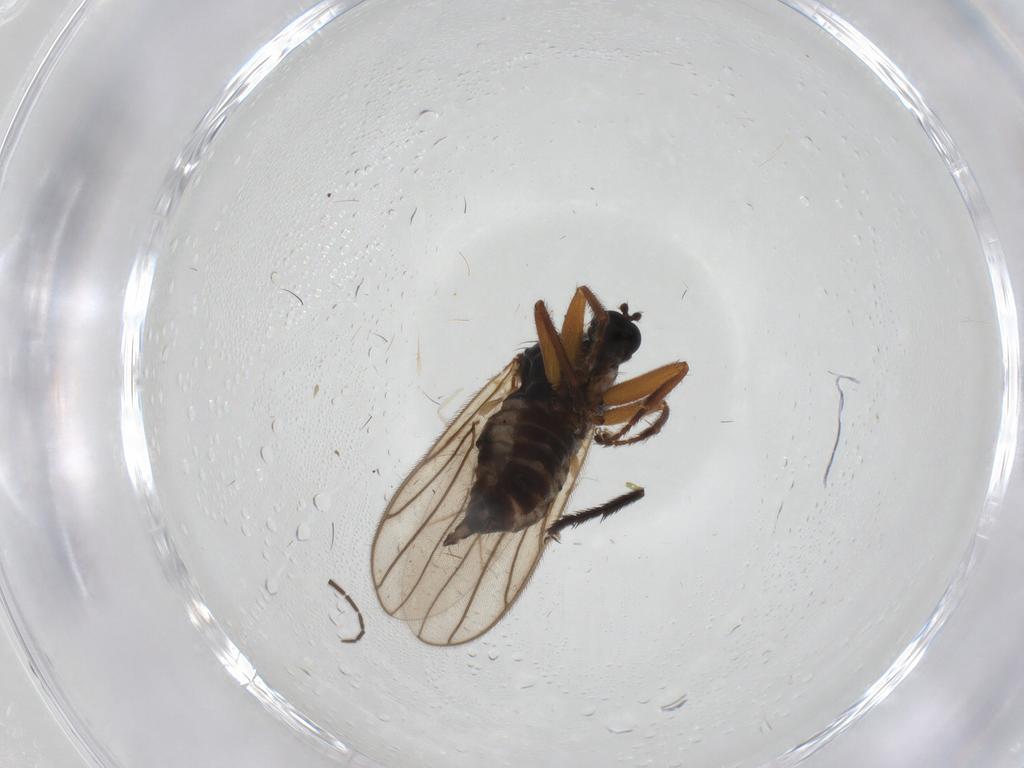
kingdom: Animalia
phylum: Arthropoda
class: Insecta
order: Diptera
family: Hybotidae
